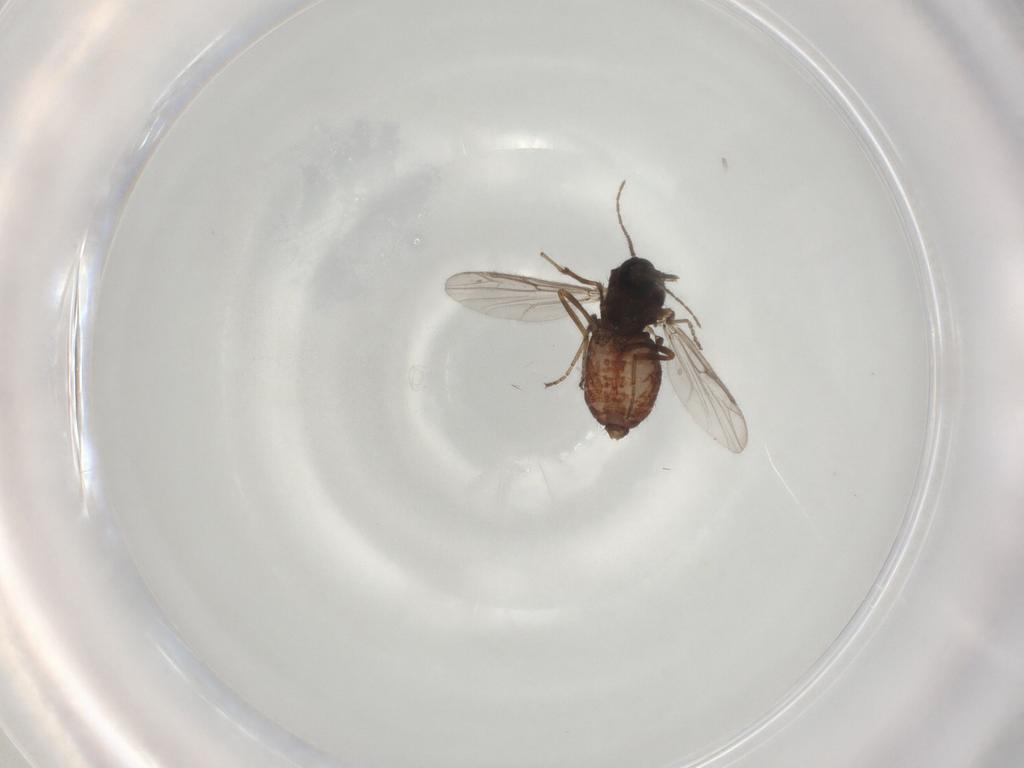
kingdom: Animalia
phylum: Arthropoda
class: Insecta
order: Diptera
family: Ceratopogonidae
